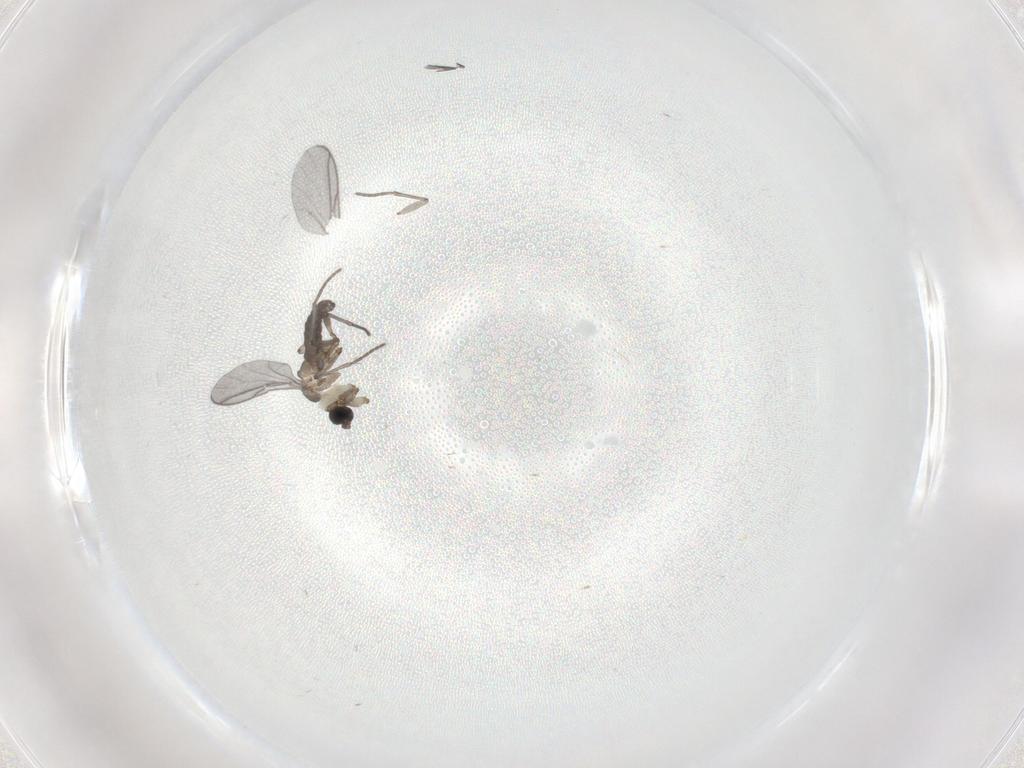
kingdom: Animalia
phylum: Arthropoda
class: Insecta
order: Diptera
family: Sciaridae
